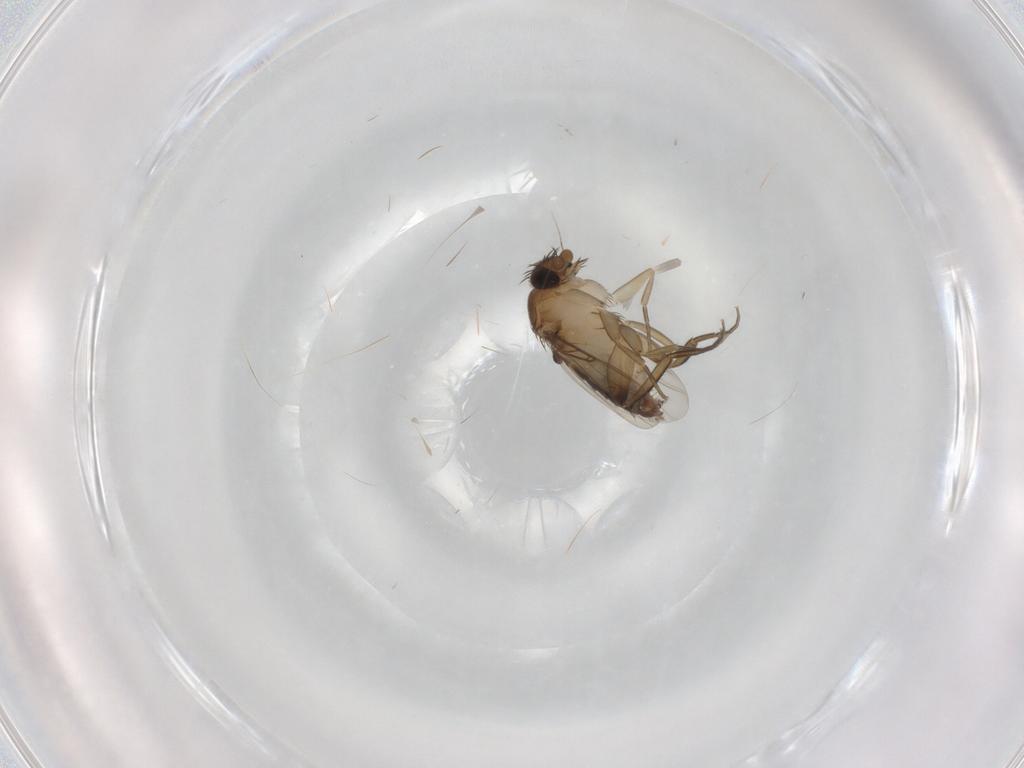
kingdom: Animalia
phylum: Arthropoda
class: Insecta
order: Diptera
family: Phoridae
